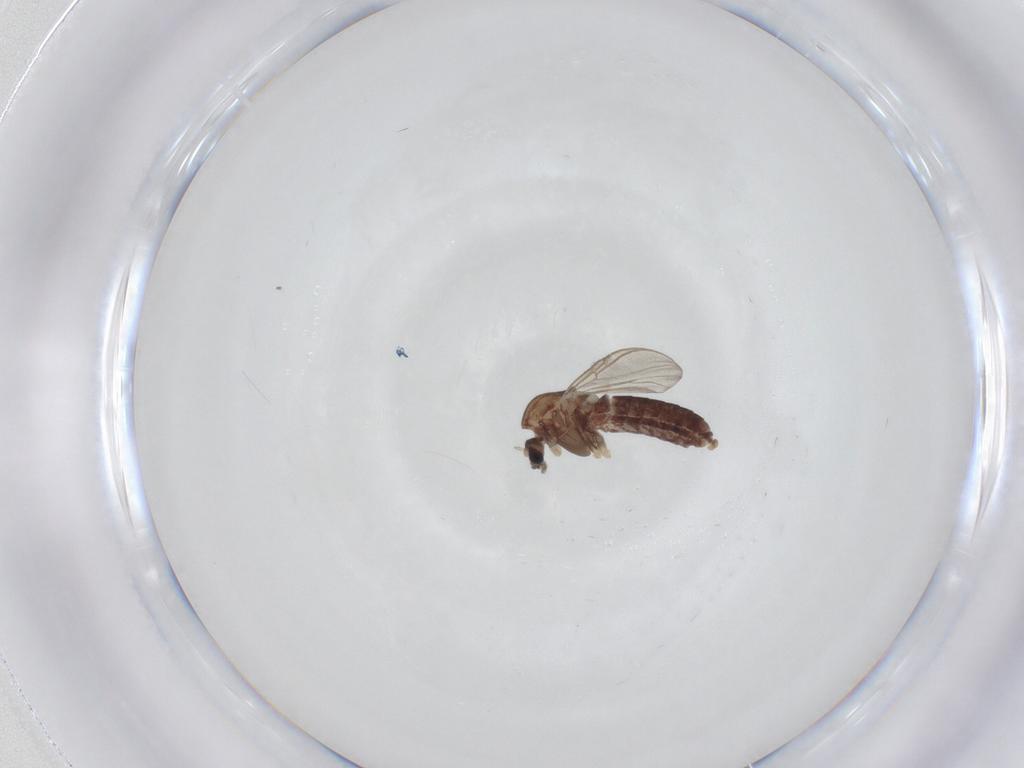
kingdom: Animalia
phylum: Arthropoda
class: Insecta
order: Diptera
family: Chironomidae
